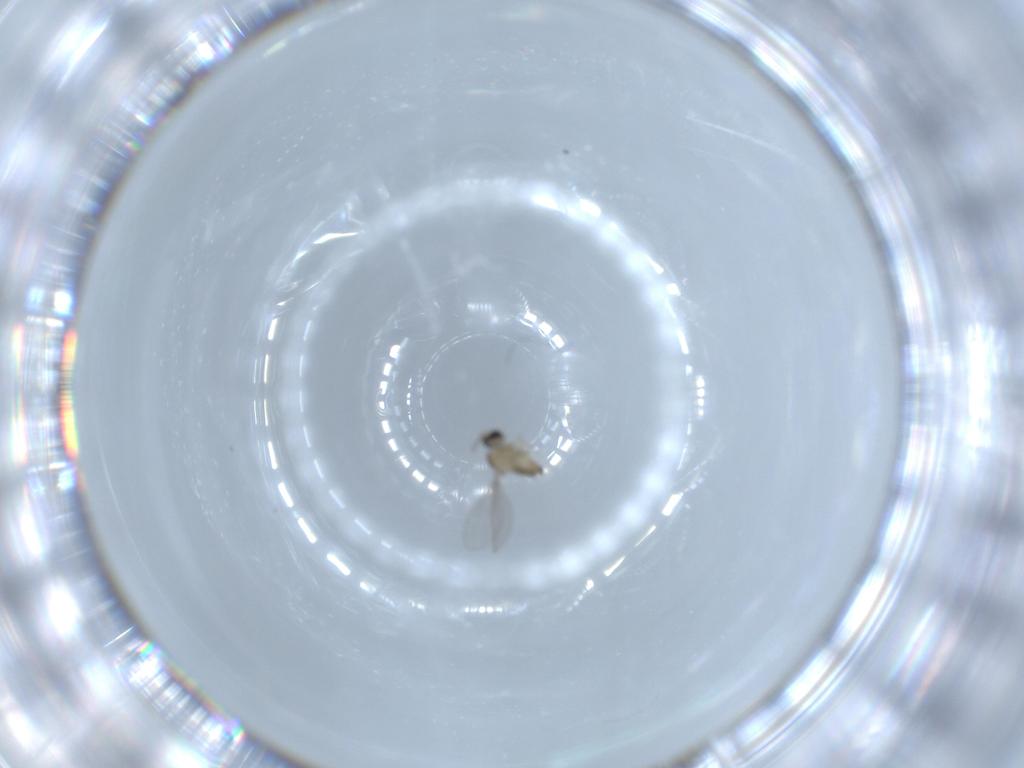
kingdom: Animalia
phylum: Arthropoda
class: Insecta
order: Diptera
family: Cecidomyiidae
